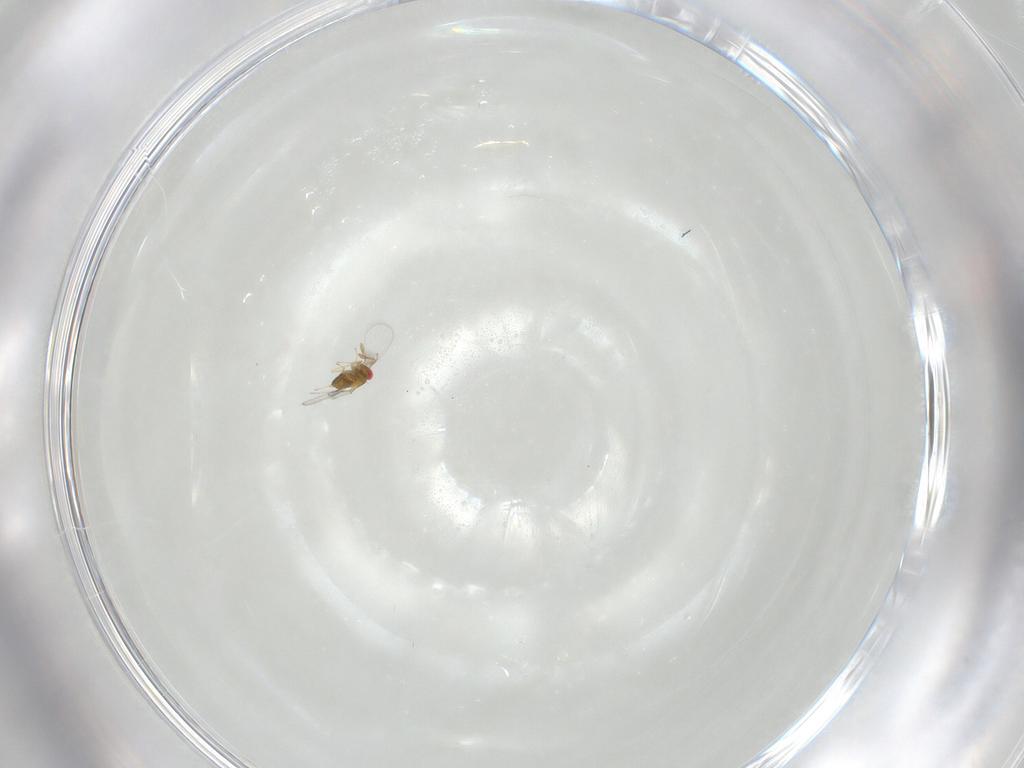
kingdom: Animalia
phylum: Arthropoda
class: Insecta
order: Hymenoptera
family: Trichogrammatidae
